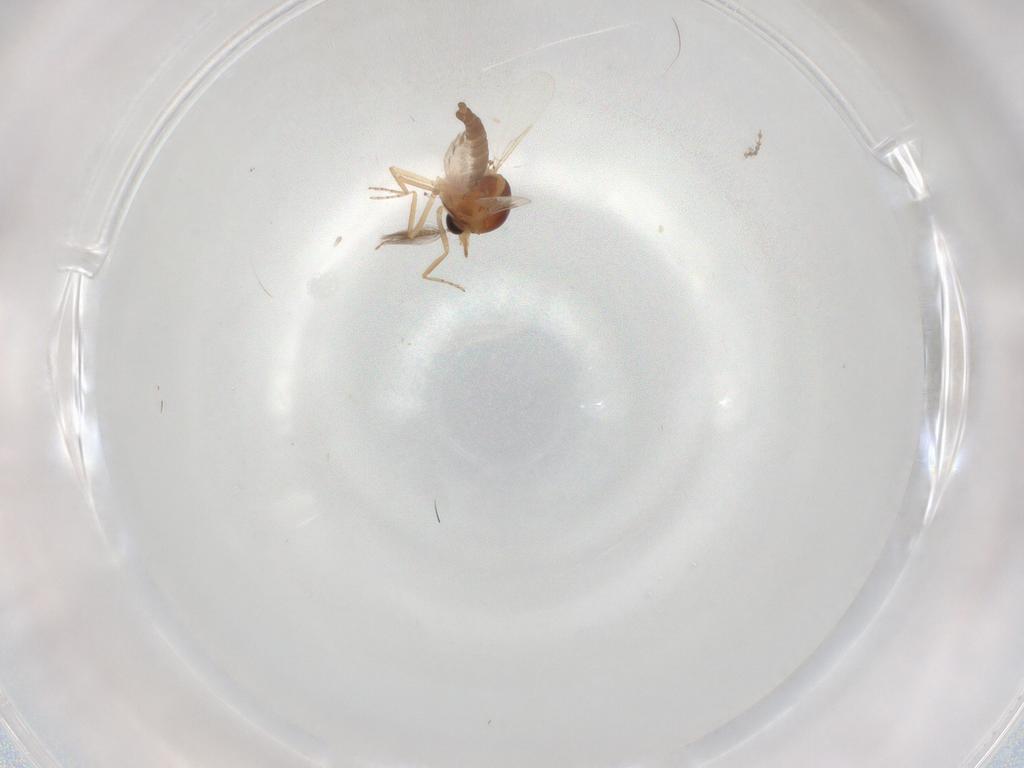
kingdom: Animalia
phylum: Arthropoda
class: Insecta
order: Diptera
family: Ceratopogonidae
